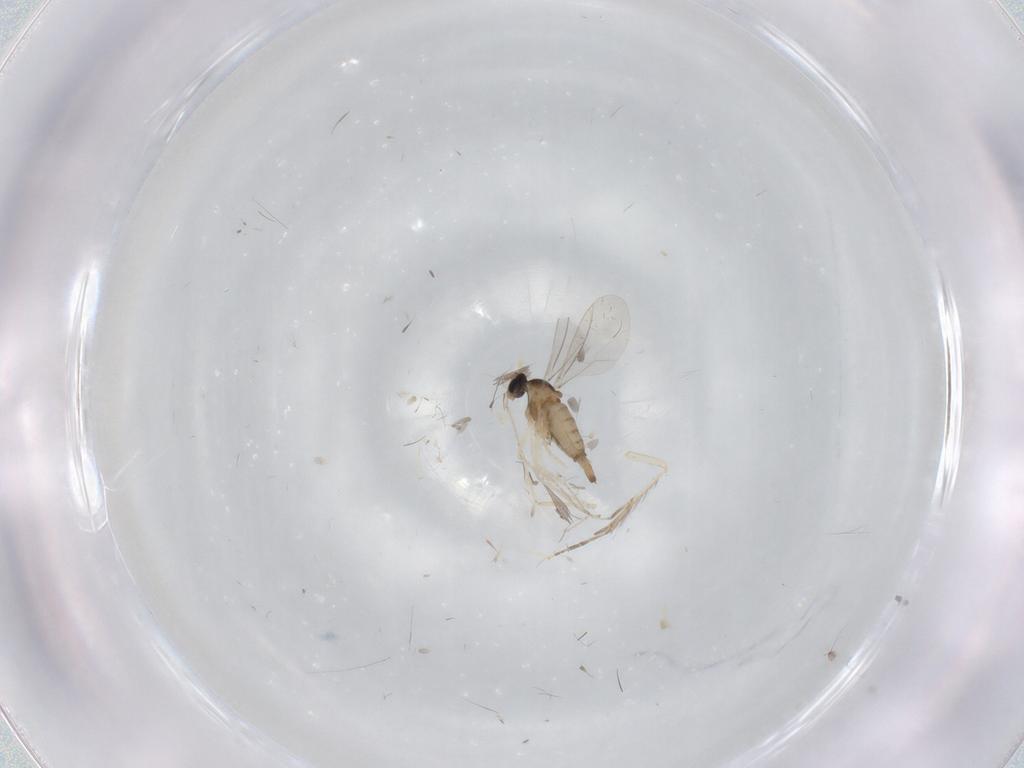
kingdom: Animalia
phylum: Arthropoda
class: Insecta
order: Diptera
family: Cecidomyiidae
